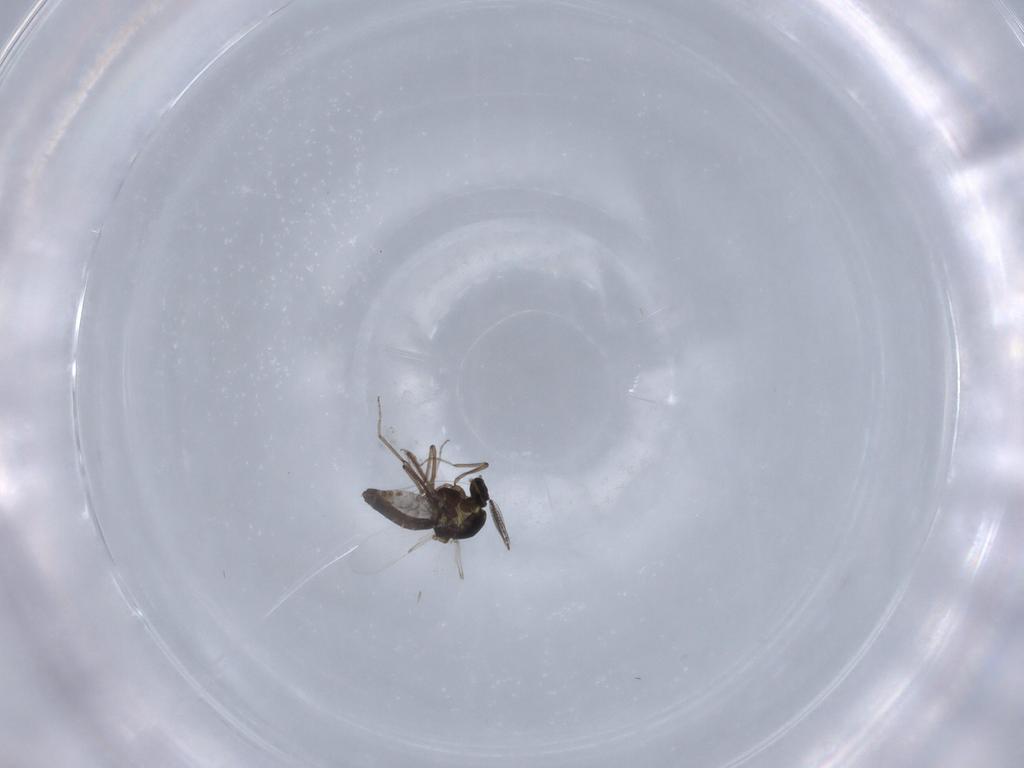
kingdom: Animalia
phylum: Arthropoda
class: Insecta
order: Diptera
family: Ceratopogonidae
